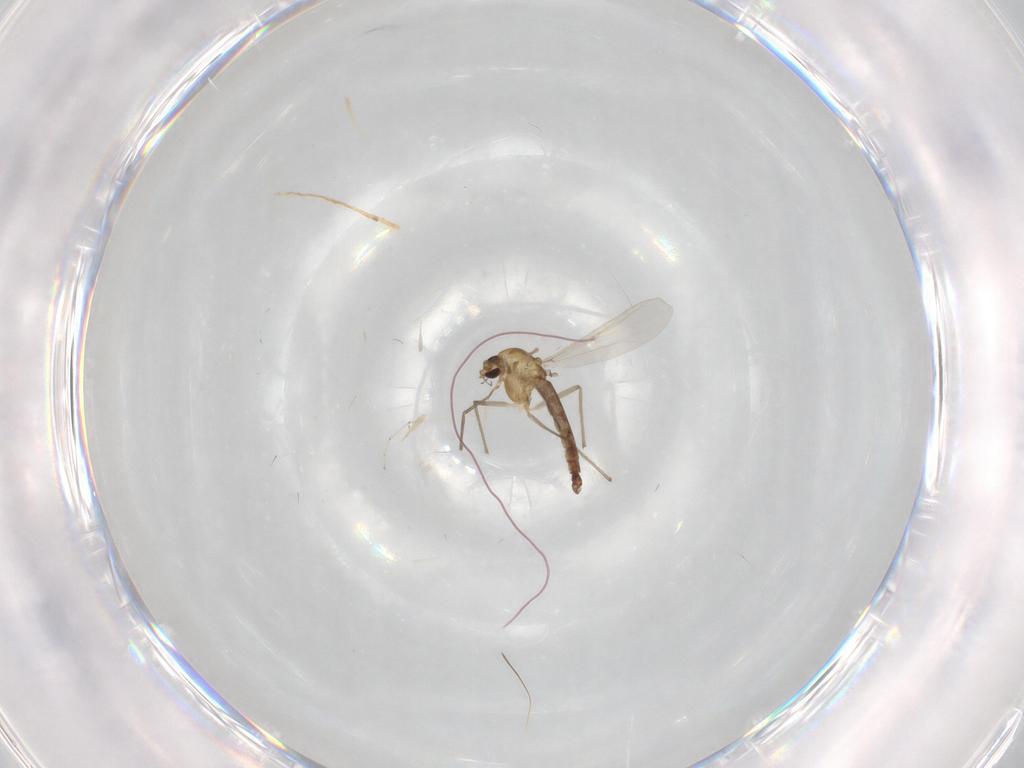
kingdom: Animalia
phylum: Arthropoda
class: Insecta
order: Diptera
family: Chironomidae
